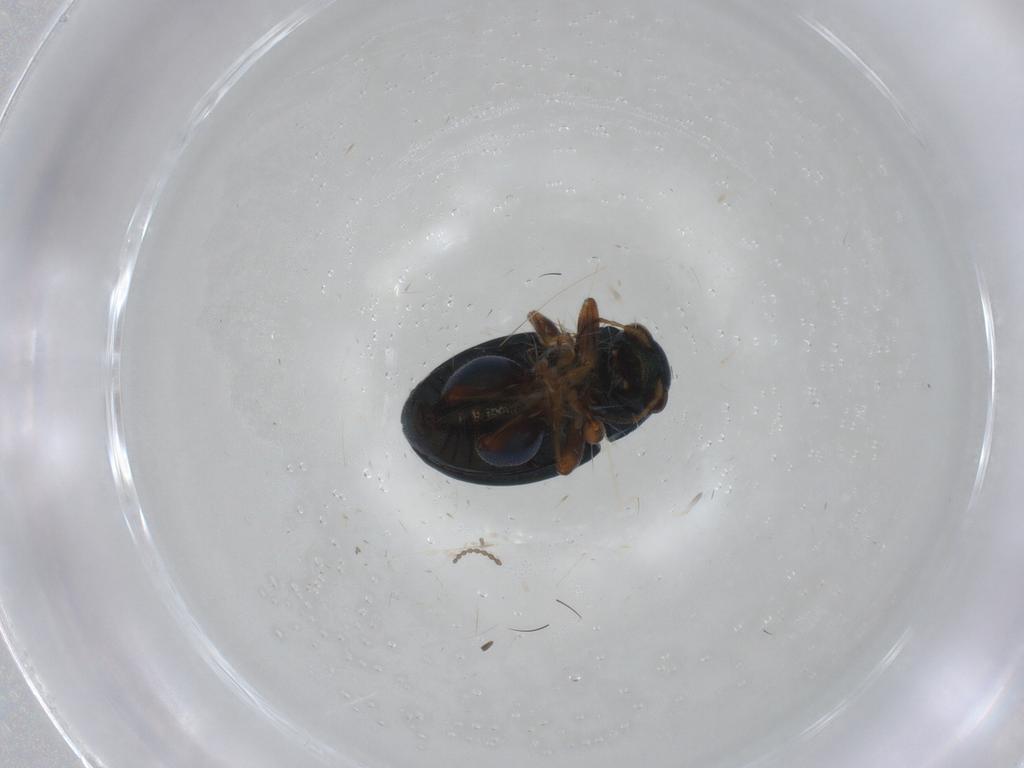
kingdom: Animalia
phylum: Arthropoda
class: Insecta
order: Coleoptera
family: Chrysomelidae
